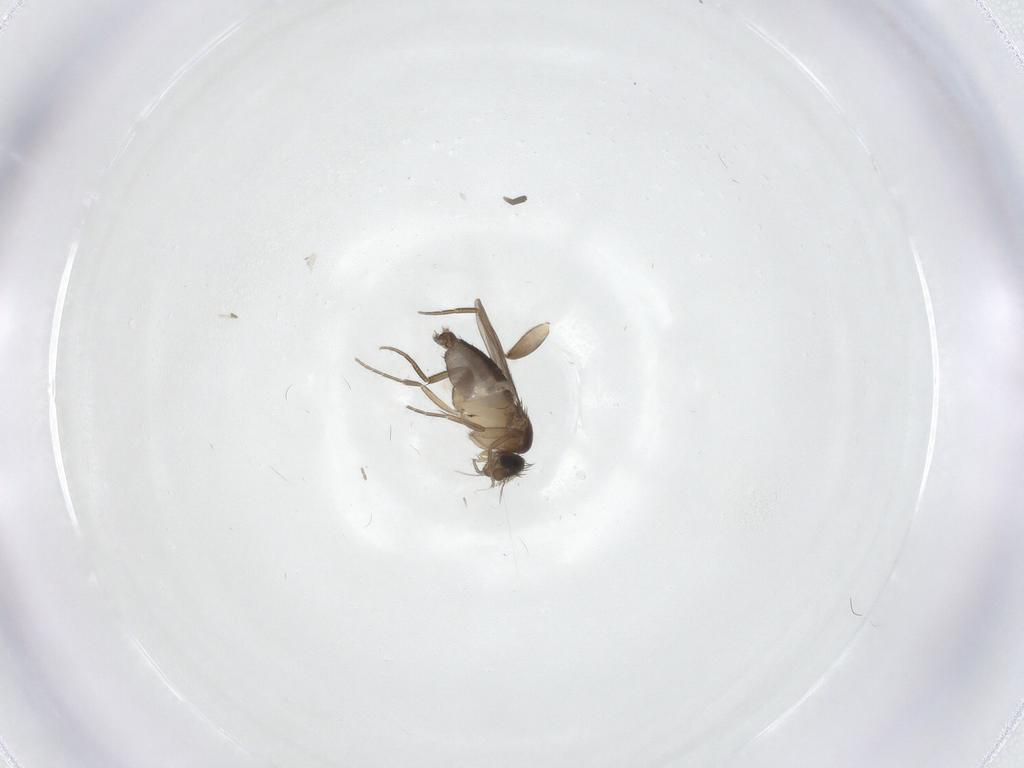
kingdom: Animalia
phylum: Arthropoda
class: Insecta
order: Diptera
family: Phoridae
